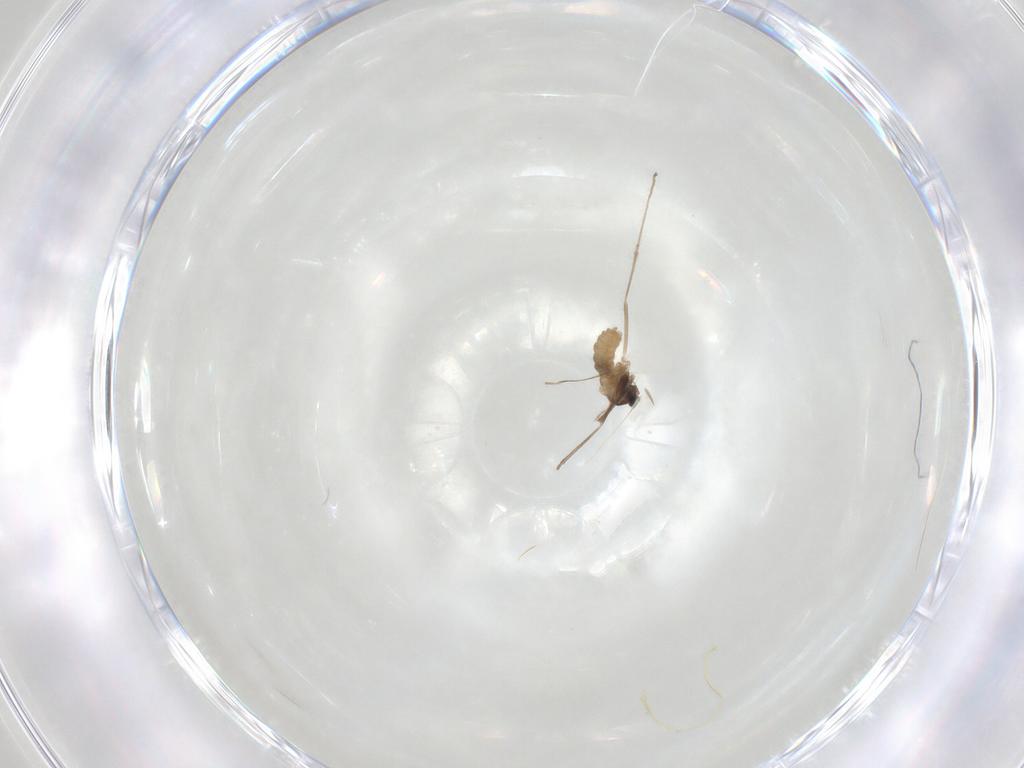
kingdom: Animalia
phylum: Arthropoda
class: Insecta
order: Diptera
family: Cecidomyiidae
